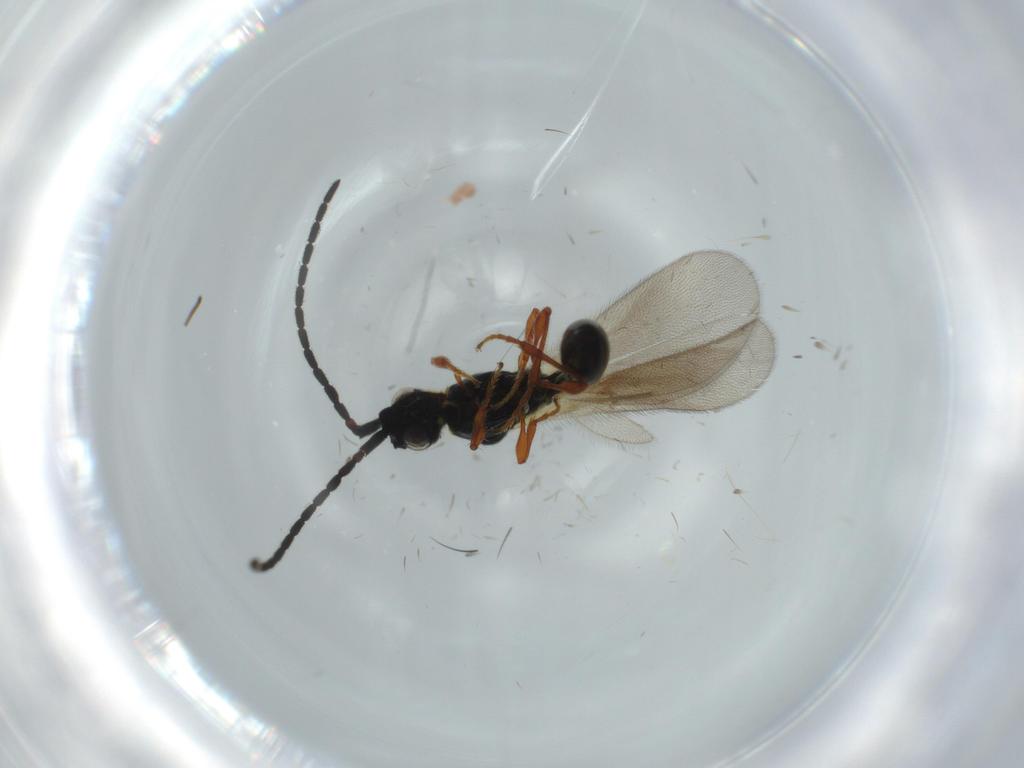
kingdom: Animalia
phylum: Arthropoda
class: Insecta
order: Hymenoptera
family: Diapriidae
